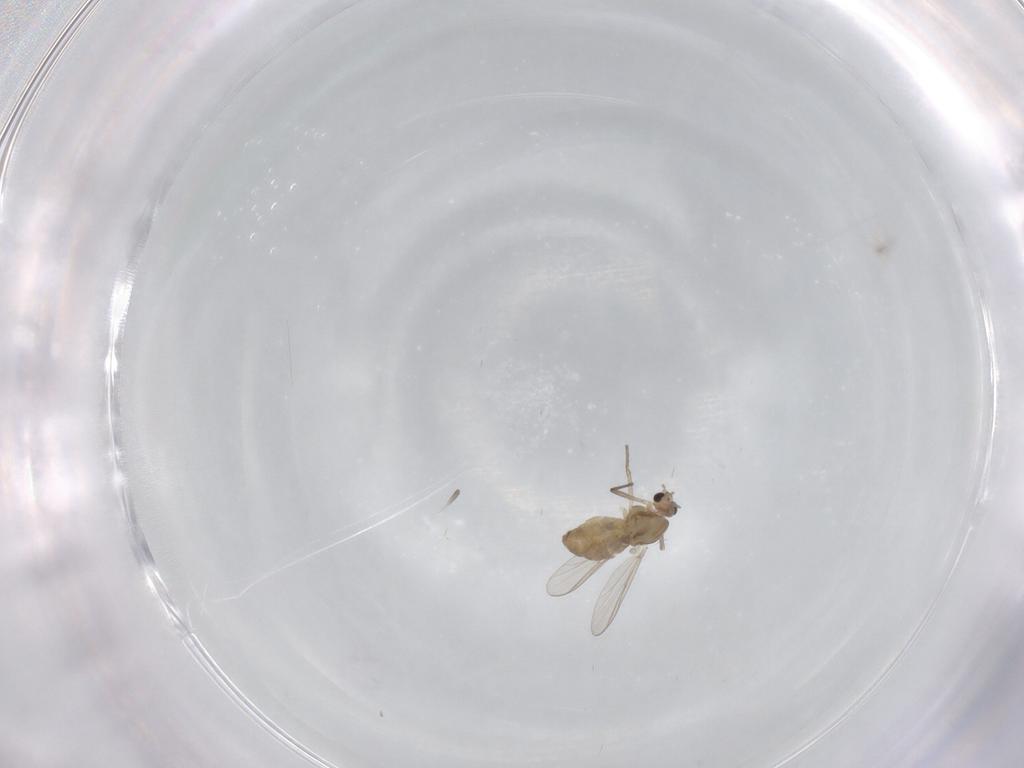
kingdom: Animalia
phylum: Arthropoda
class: Insecta
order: Diptera
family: Chironomidae
